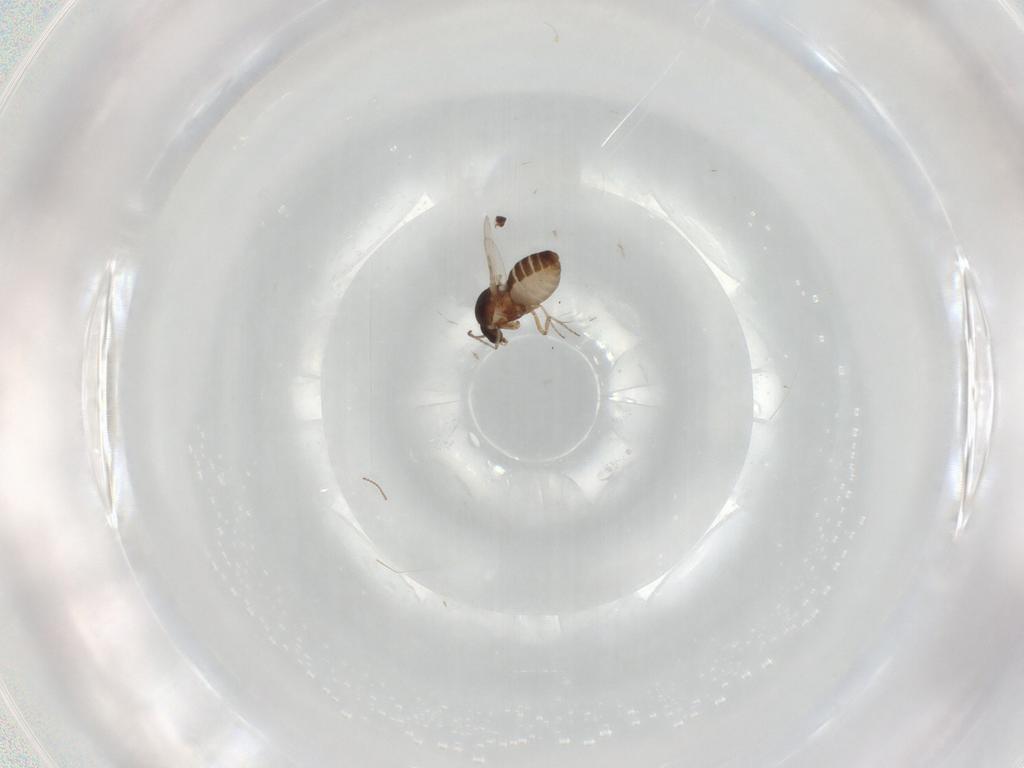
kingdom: Animalia
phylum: Arthropoda
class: Insecta
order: Diptera
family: Ceratopogonidae
